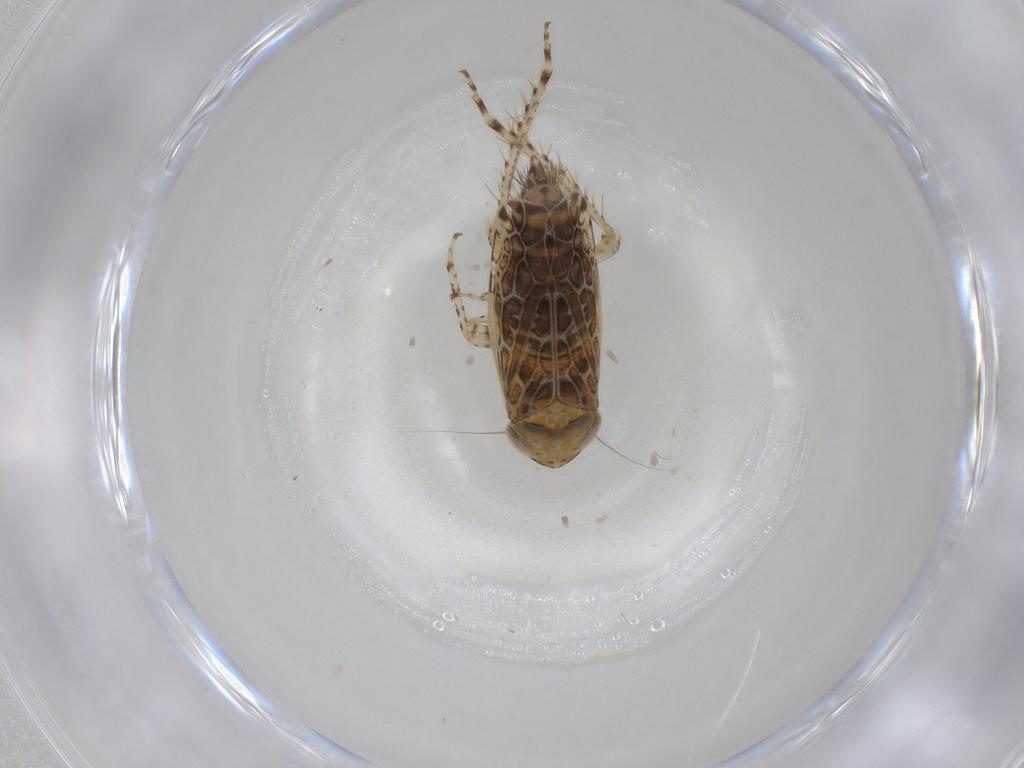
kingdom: Animalia
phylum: Arthropoda
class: Insecta
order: Hemiptera
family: Cicadellidae
